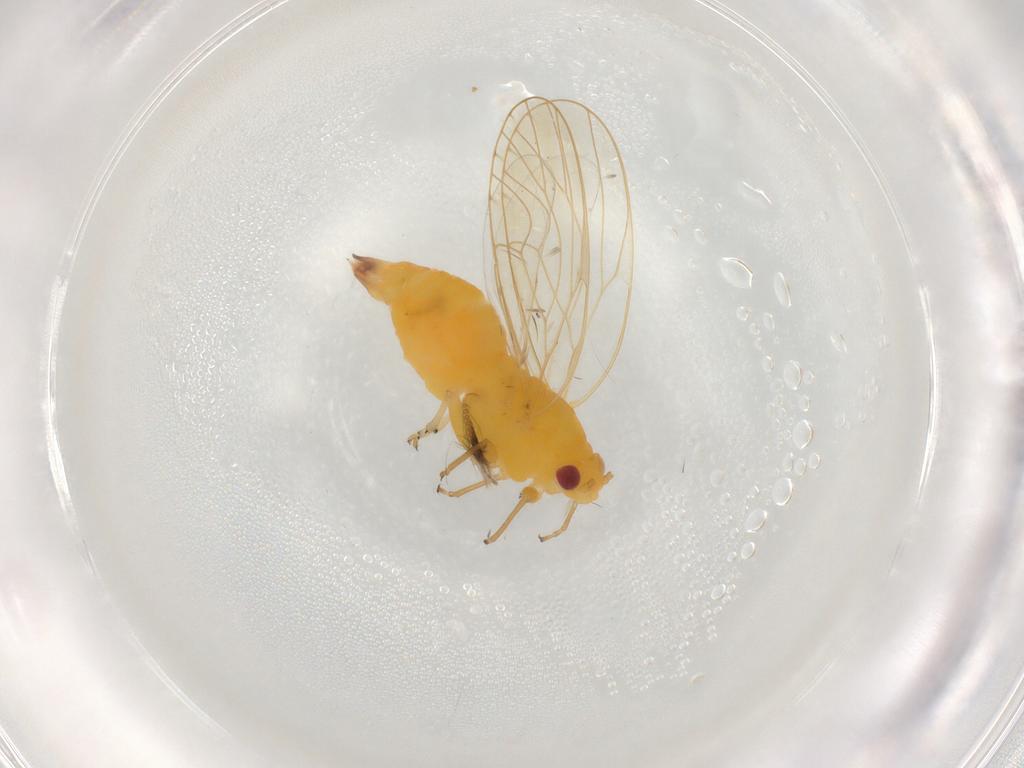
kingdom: Animalia
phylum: Arthropoda
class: Insecta
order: Hemiptera
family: Psyllidae
